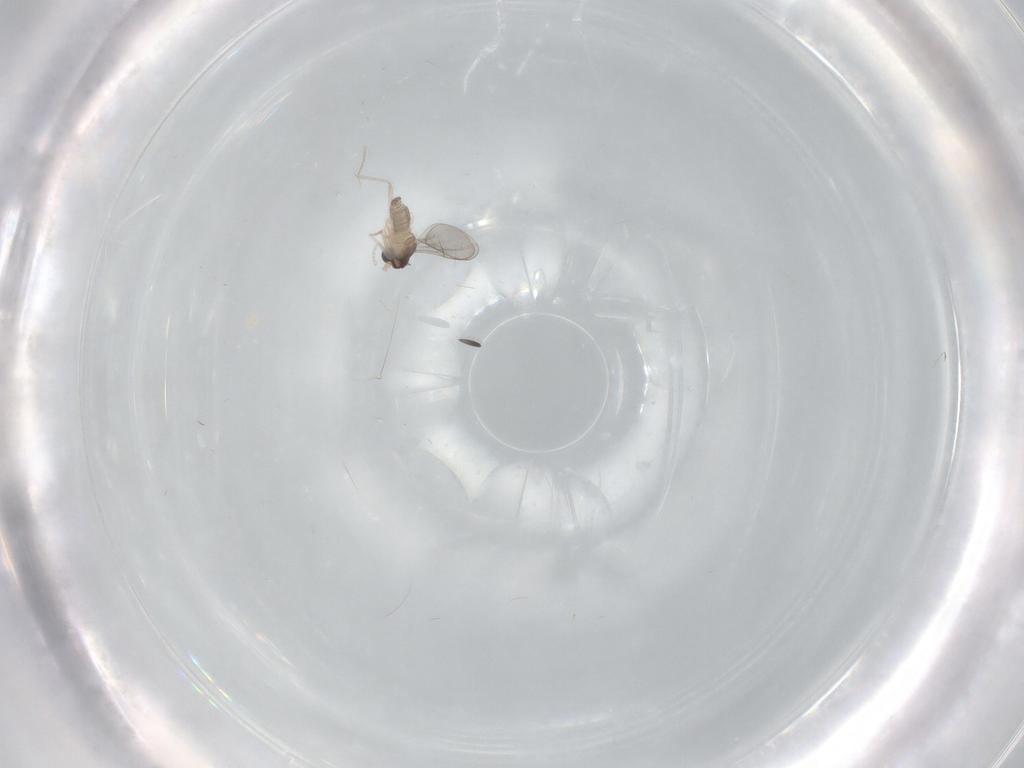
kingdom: Animalia
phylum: Arthropoda
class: Insecta
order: Diptera
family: Cecidomyiidae
